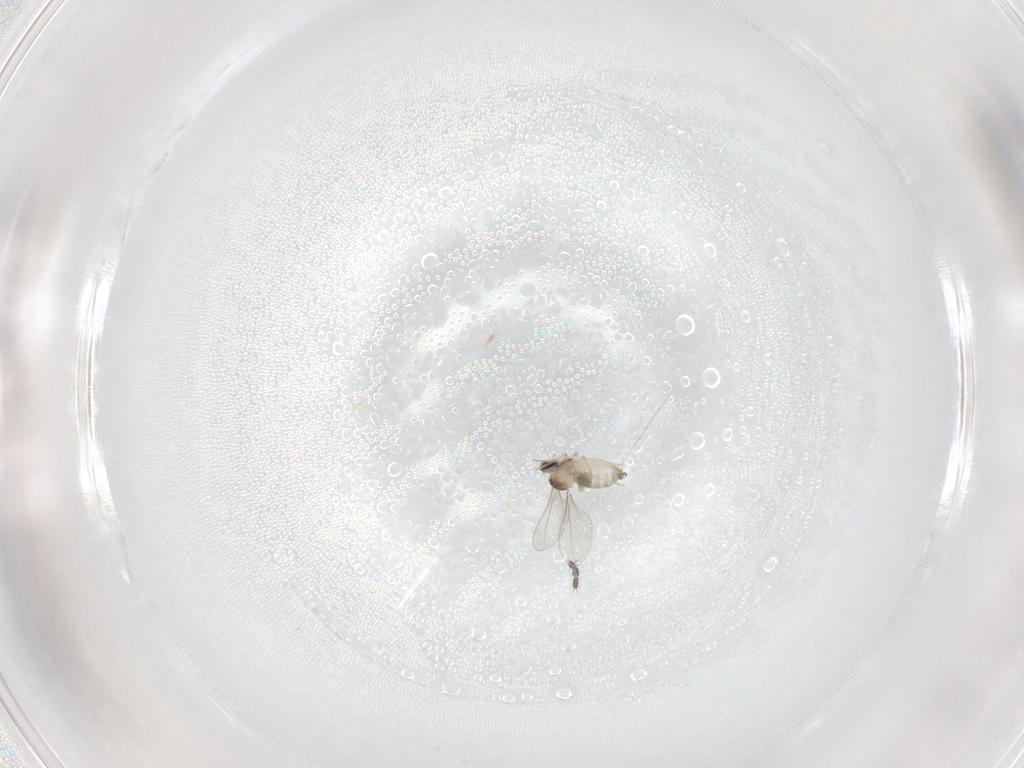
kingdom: Animalia
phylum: Arthropoda
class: Insecta
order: Diptera
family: Cecidomyiidae
